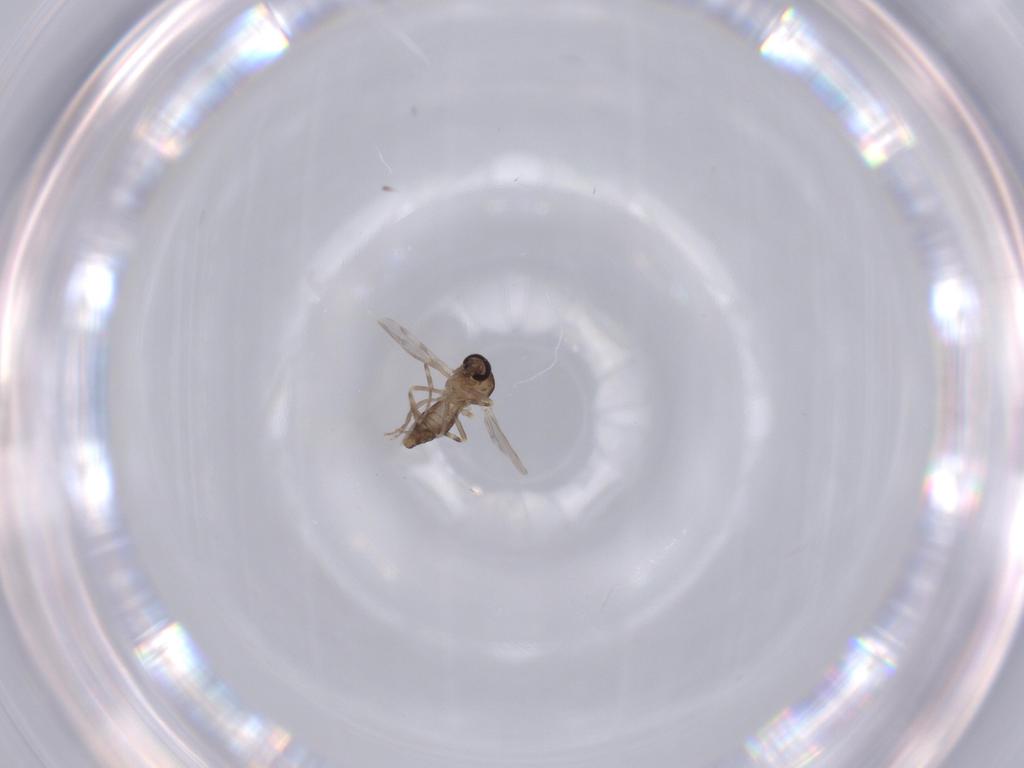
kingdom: Animalia
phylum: Arthropoda
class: Insecta
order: Diptera
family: Ceratopogonidae
